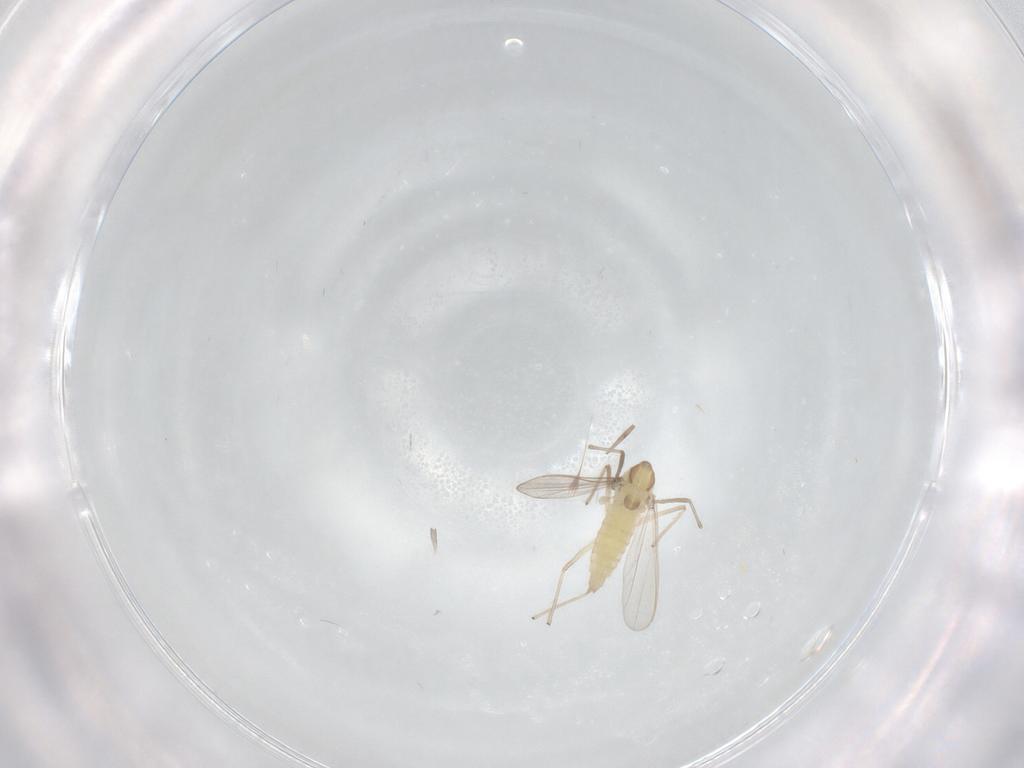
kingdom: Animalia
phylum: Arthropoda
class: Insecta
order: Diptera
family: Chironomidae
